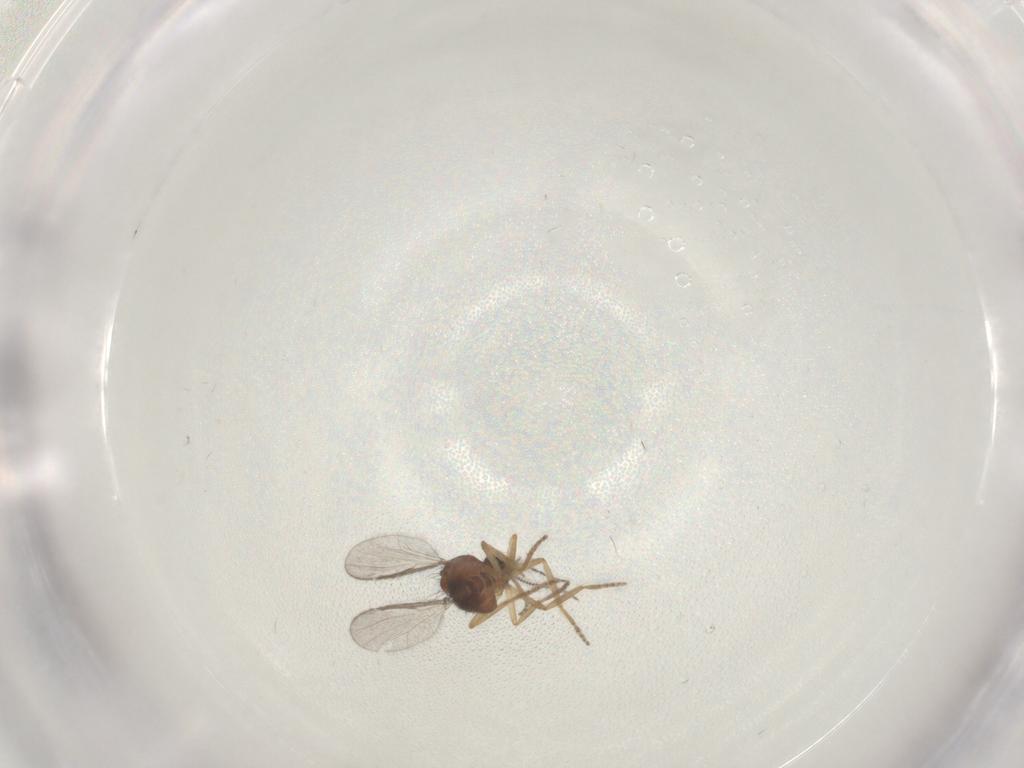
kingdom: Animalia
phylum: Arthropoda
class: Insecta
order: Diptera
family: Ceratopogonidae
